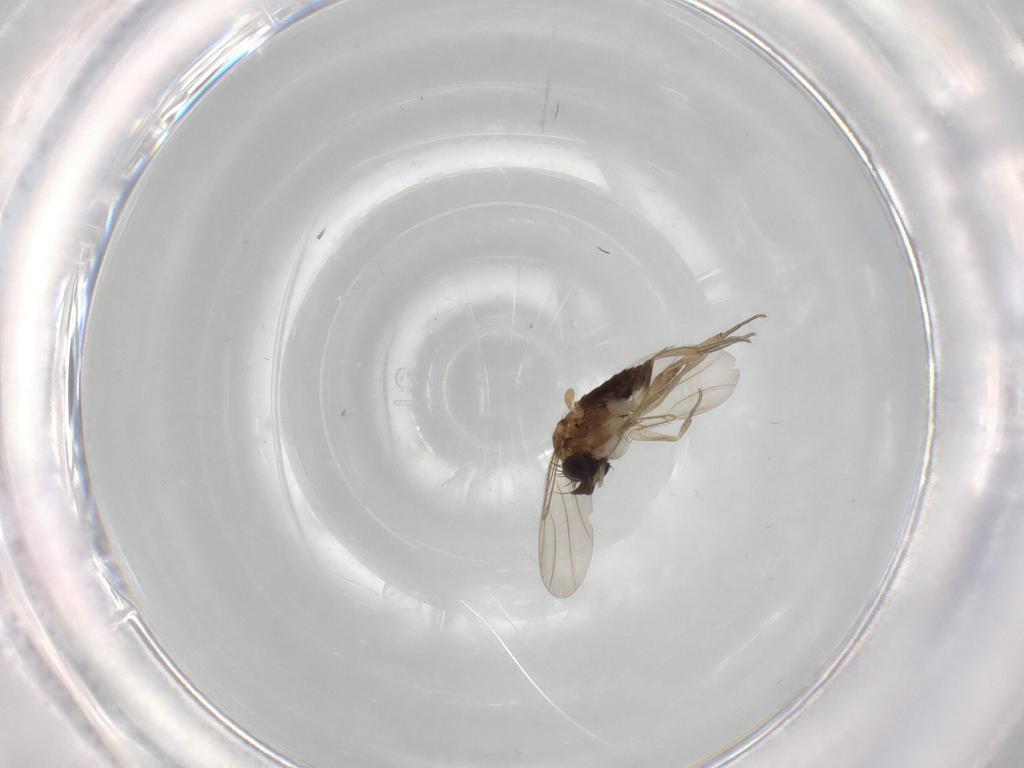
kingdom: Animalia
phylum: Arthropoda
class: Insecta
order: Diptera
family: Phoridae
